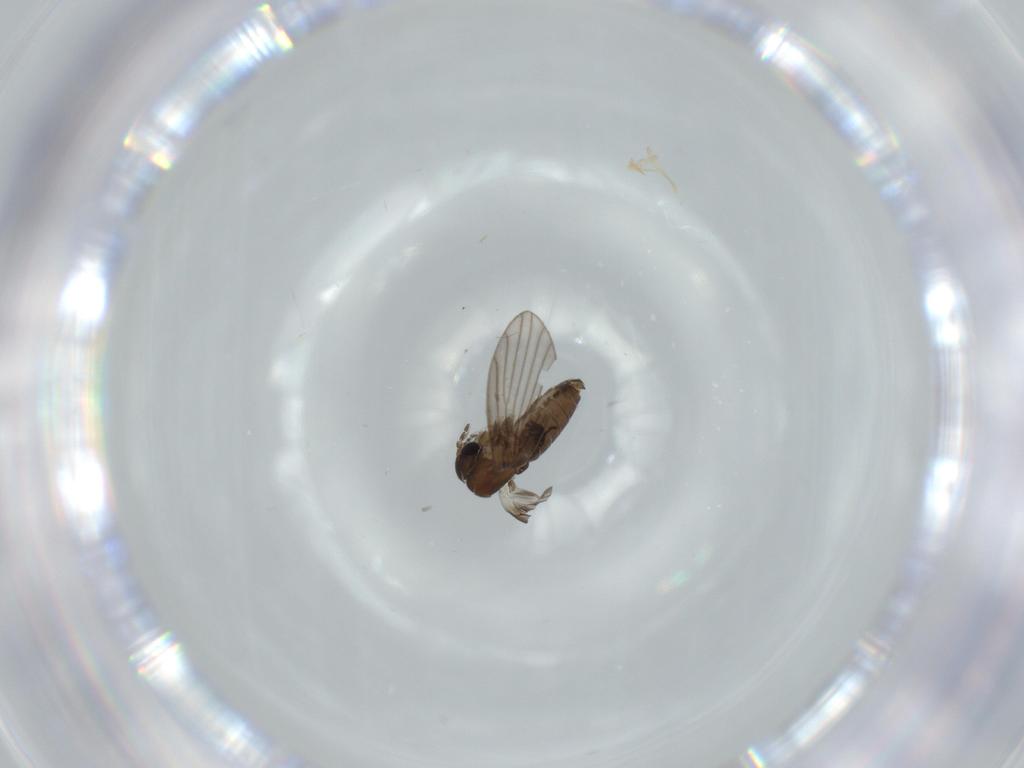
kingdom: Animalia
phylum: Arthropoda
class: Insecta
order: Diptera
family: Psychodidae
